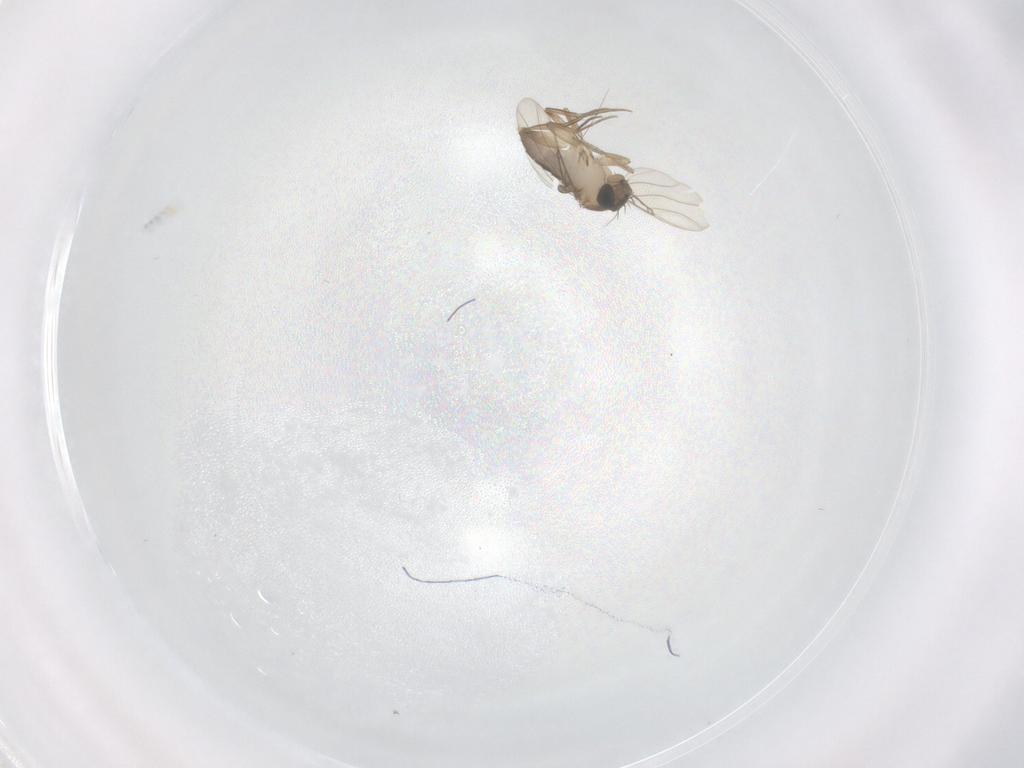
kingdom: Animalia
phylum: Arthropoda
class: Insecta
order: Diptera
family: Phoridae
